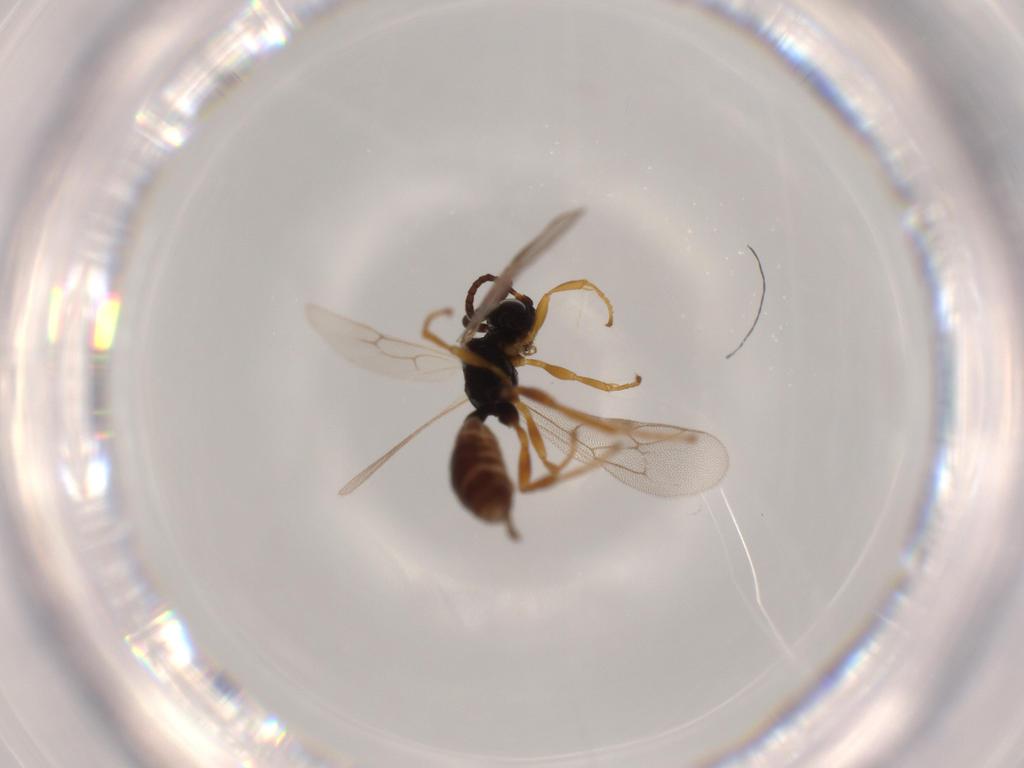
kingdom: Animalia
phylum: Arthropoda
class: Insecta
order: Hymenoptera
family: Ichneumonidae
